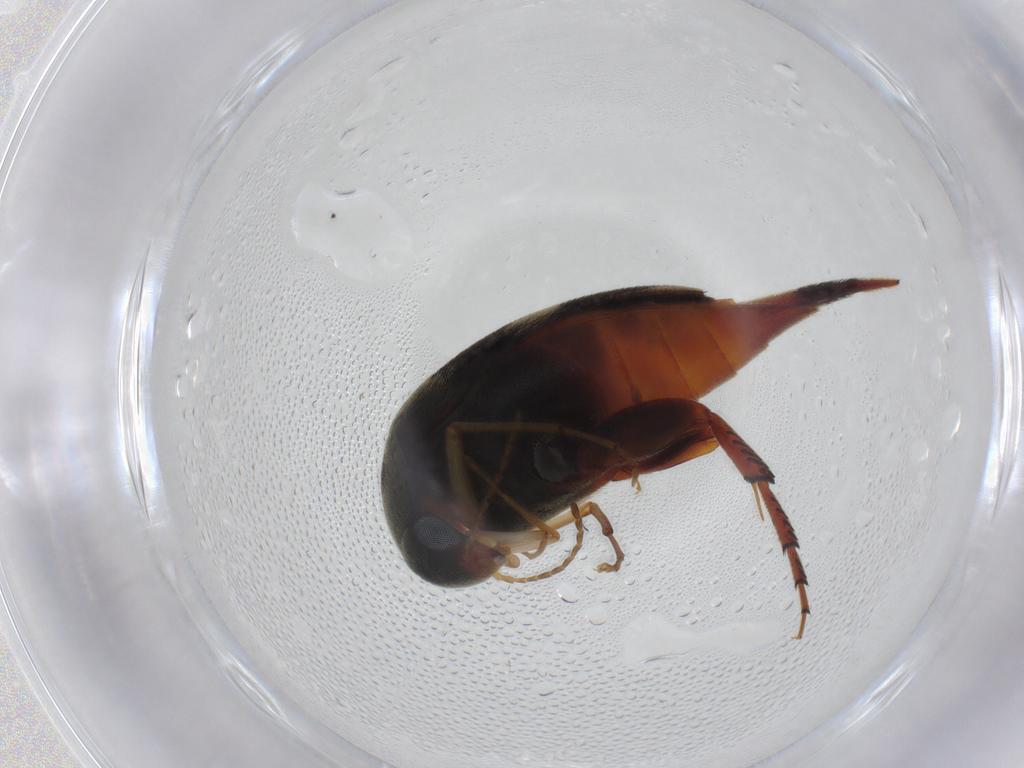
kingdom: Animalia
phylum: Arthropoda
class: Insecta
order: Coleoptera
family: Mordellidae
